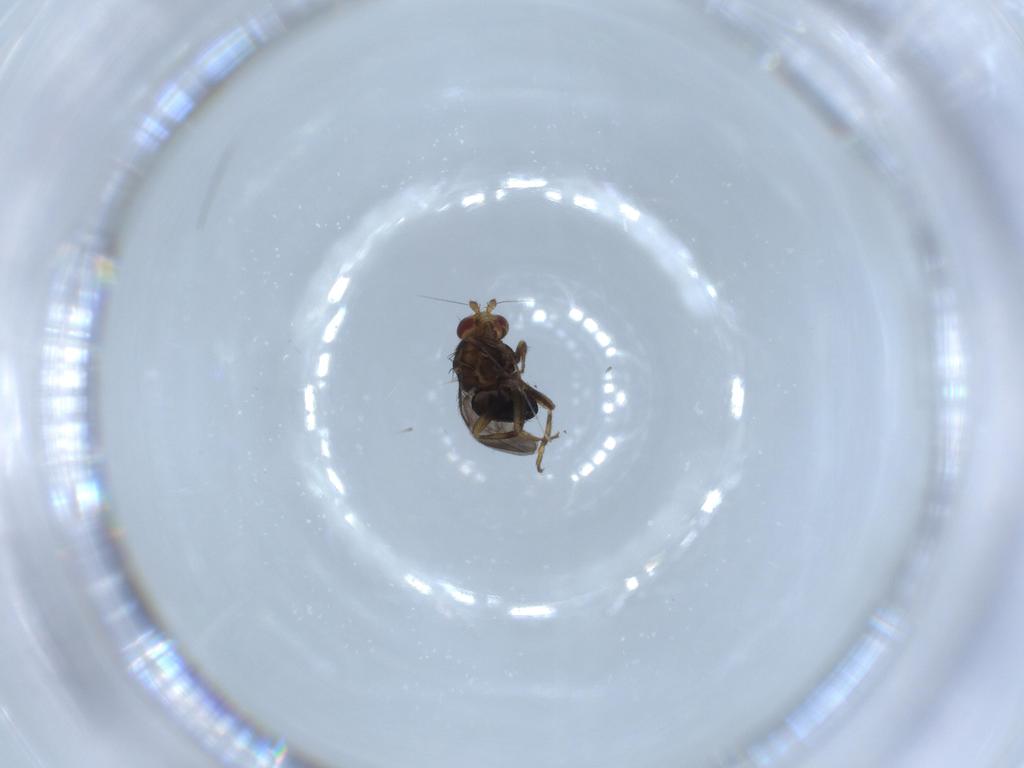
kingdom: Animalia
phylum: Arthropoda
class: Insecta
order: Diptera
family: Sphaeroceridae
